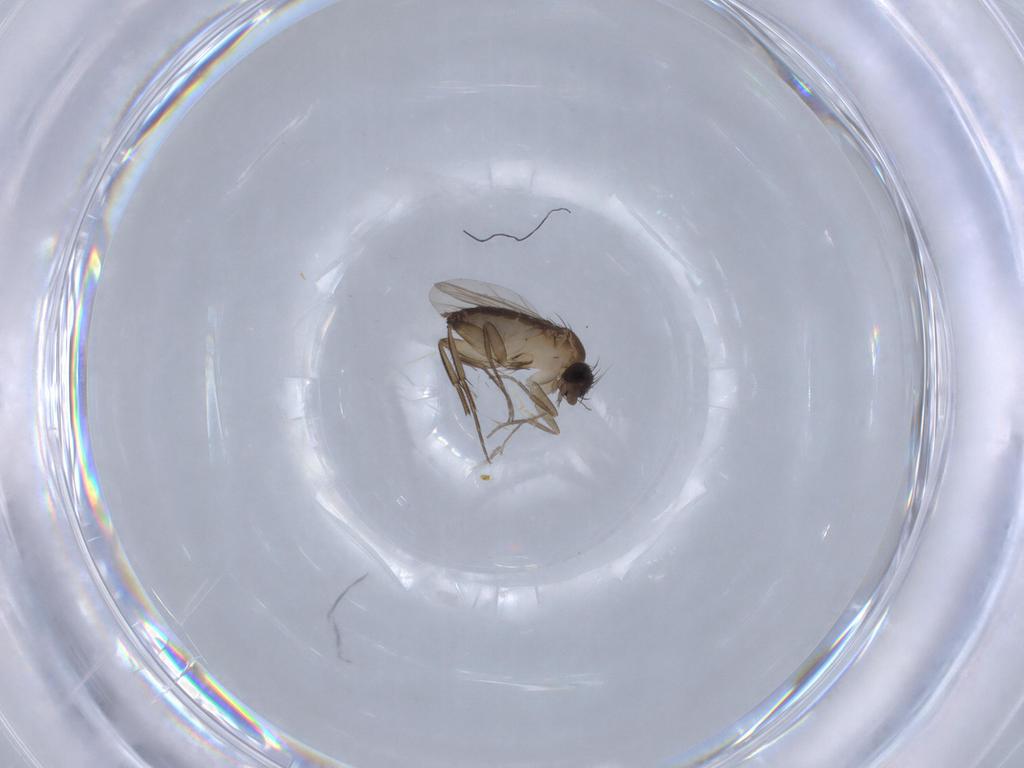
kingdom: Animalia
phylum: Arthropoda
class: Insecta
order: Diptera
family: Phoridae
